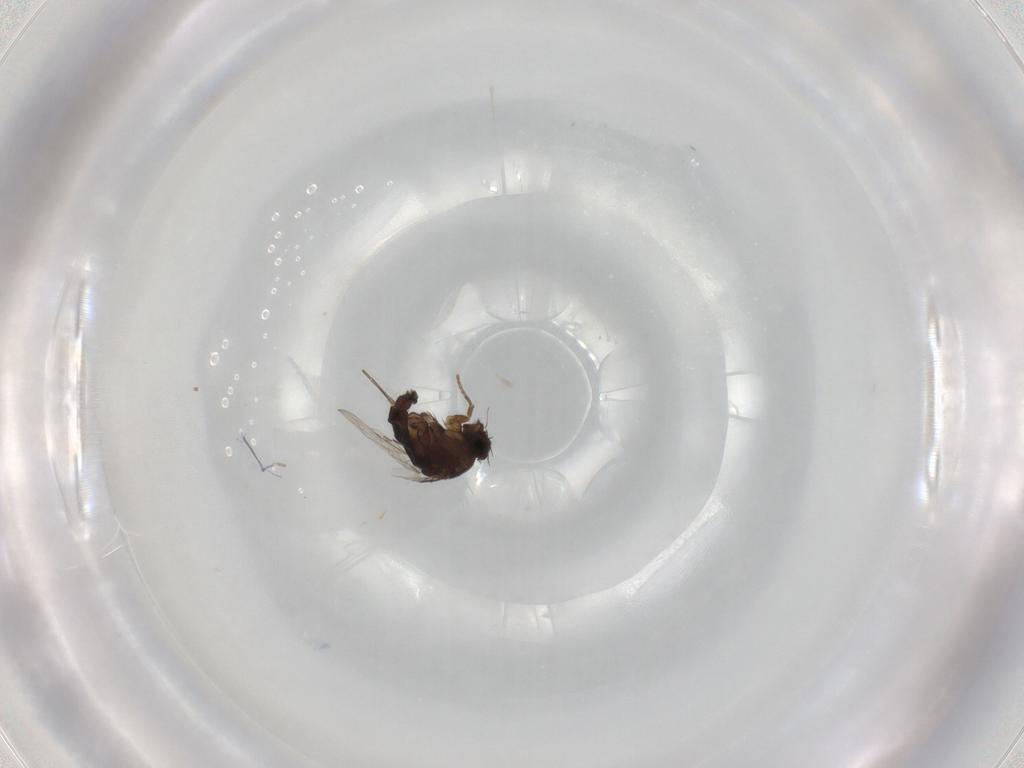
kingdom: Animalia
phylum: Arthropoda
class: Insecta
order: Diptera
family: Phoridae
